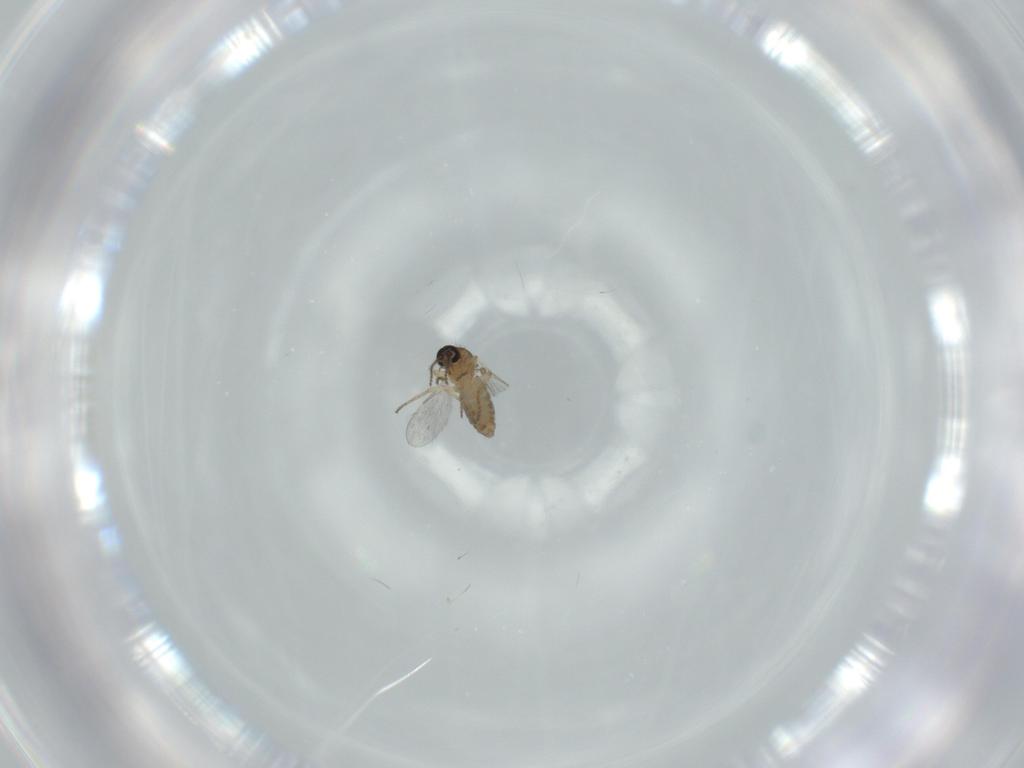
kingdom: Animalia
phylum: Arthropoda
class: Insecta
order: Diptera
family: Ceratopogonidae
